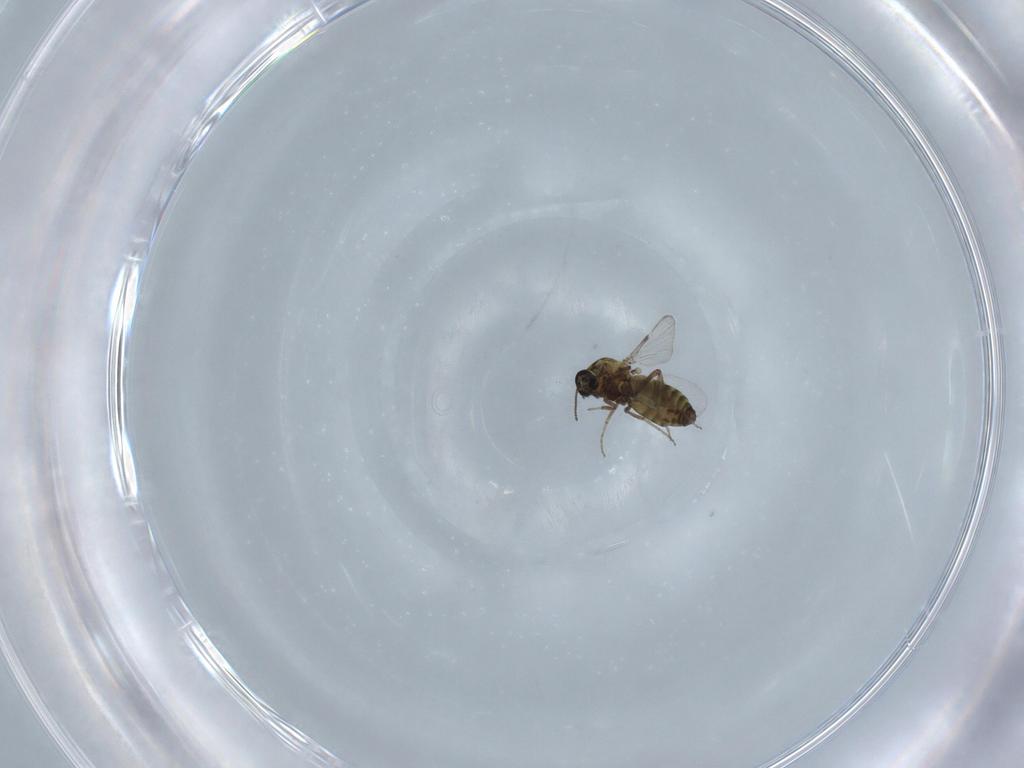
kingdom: Animalia
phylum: Arthropoda
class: Insecta
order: Diptera
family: Ceratopogonidae
